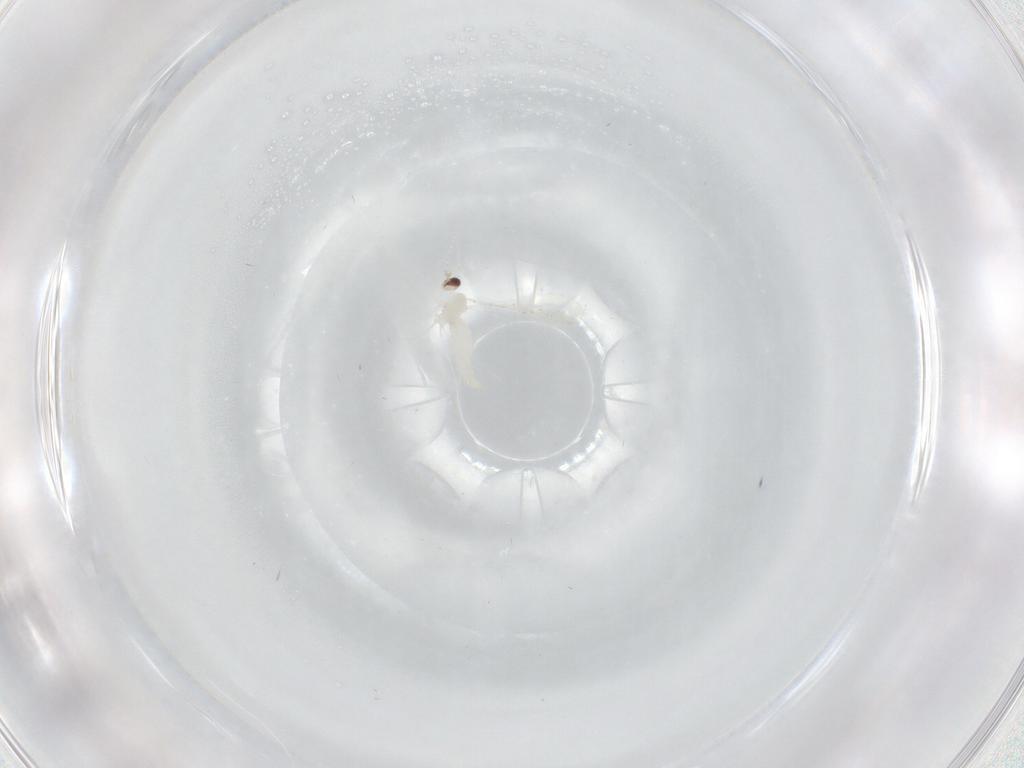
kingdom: Animalia
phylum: Arthropoda
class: Insecta
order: Diptera
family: Cecidomyiidae
